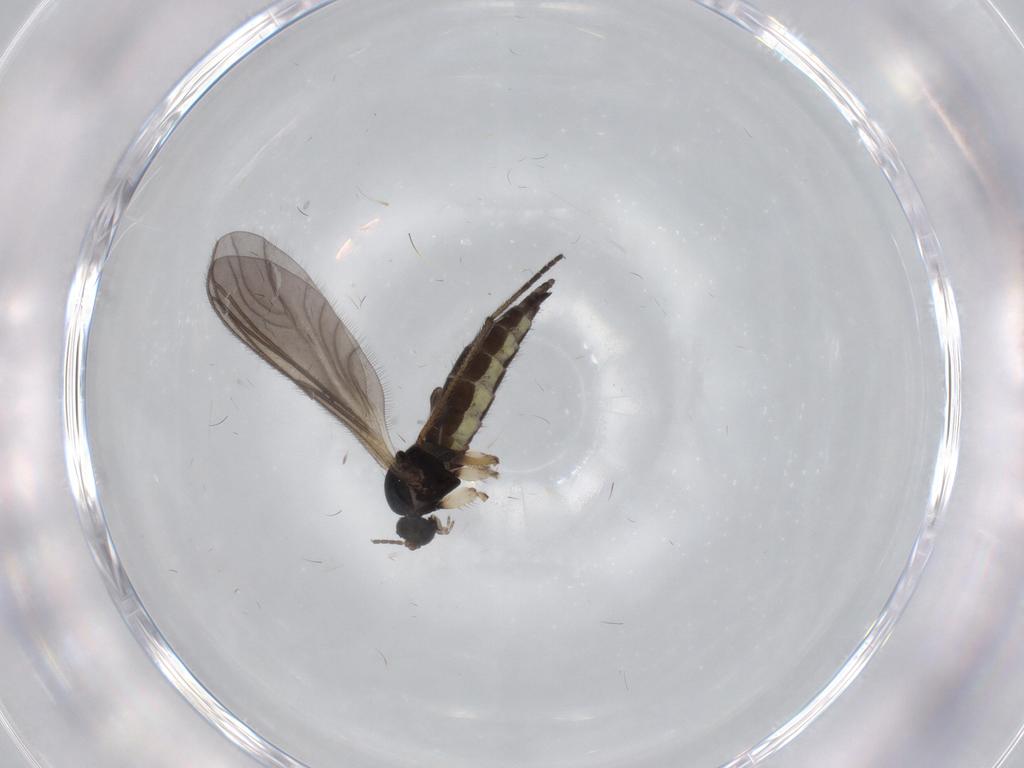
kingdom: Animalia
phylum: Arthropoda
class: Insecta
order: Diptera
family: Sciaridae
